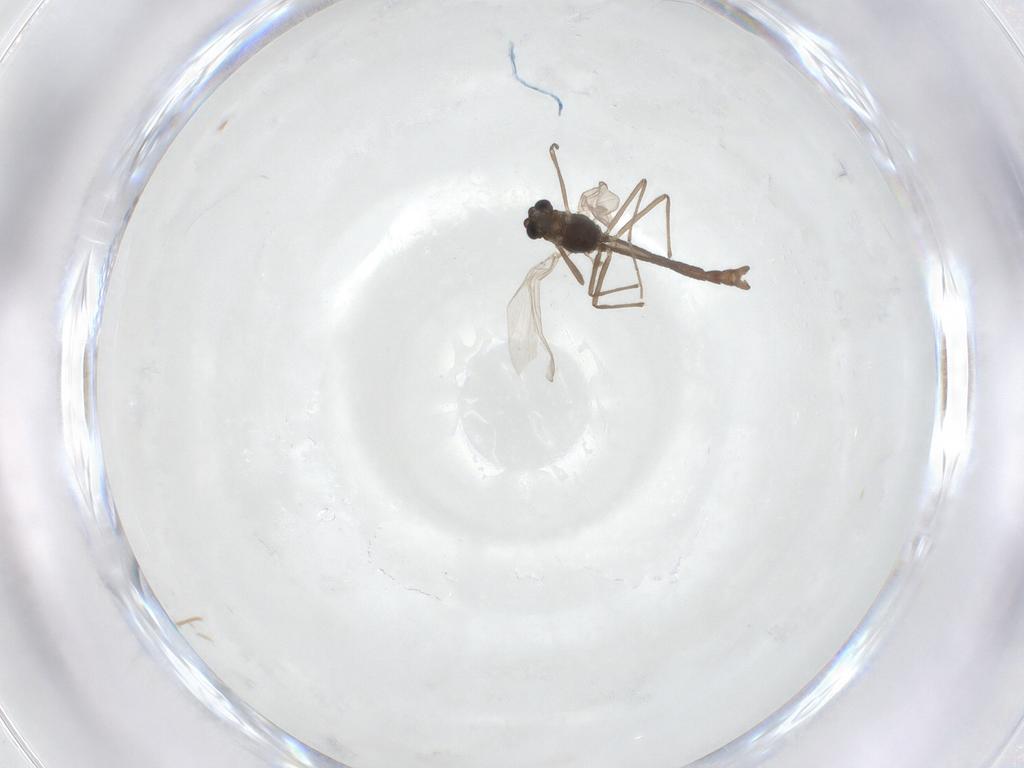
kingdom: Animalia
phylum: Arthropoda
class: Insecta
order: Diptera
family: Chironomidae
